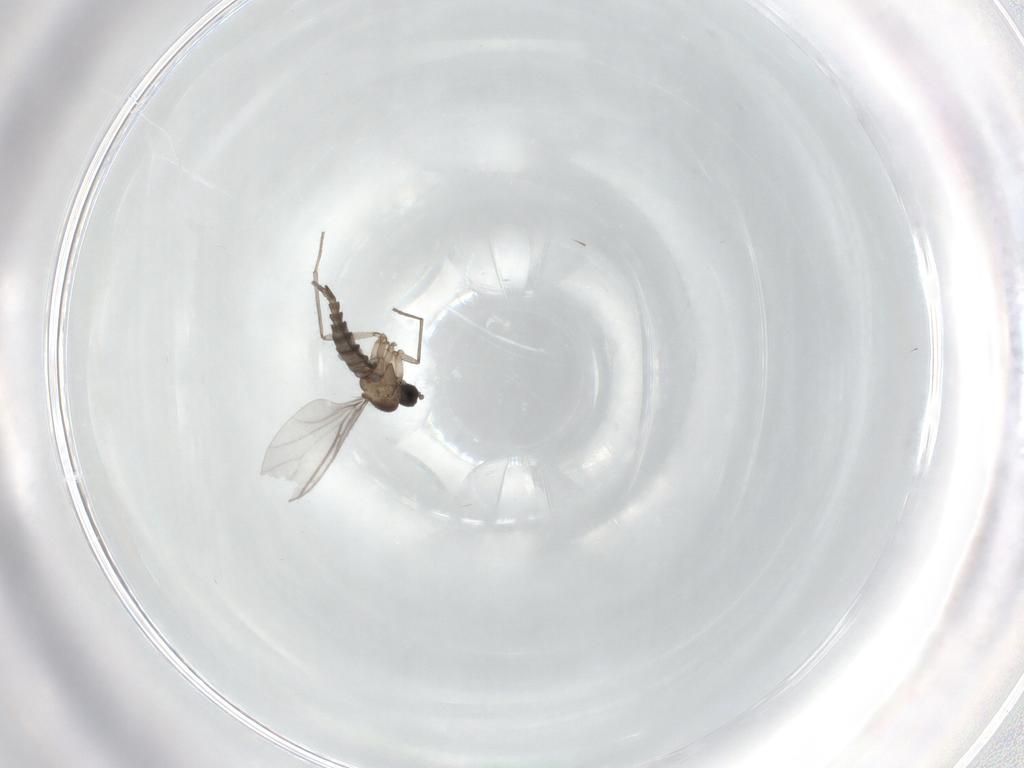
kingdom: Animalia
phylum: Arthropoda
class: Insecta
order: Diptera
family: Sciaridae
